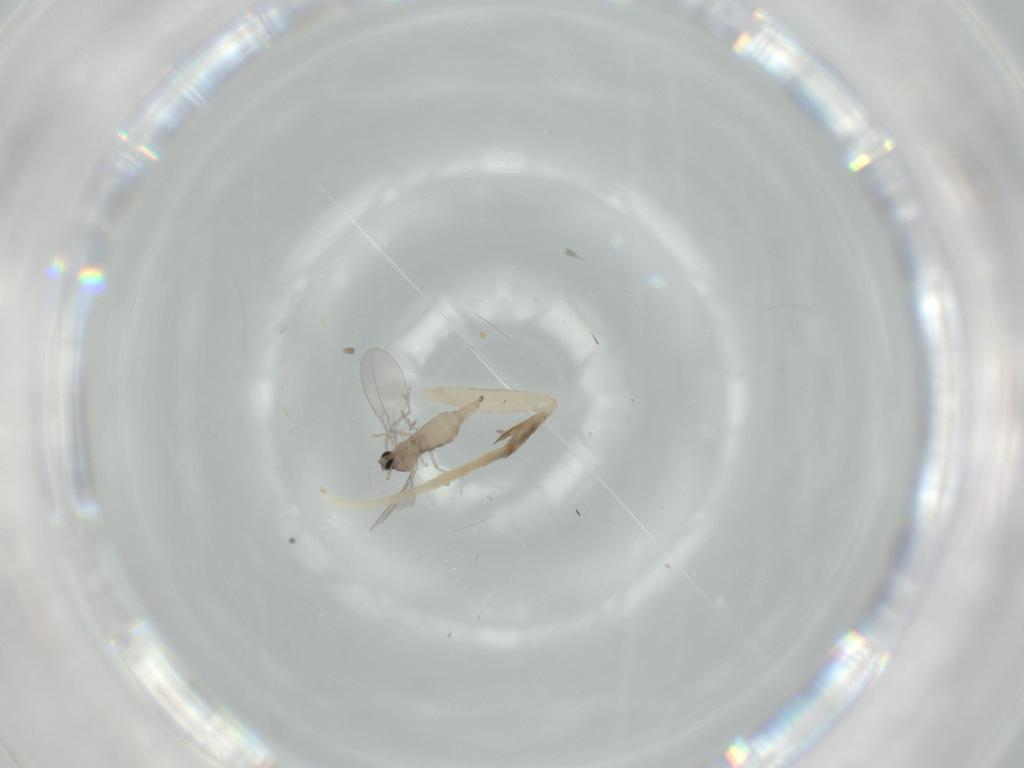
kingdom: Animalia
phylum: Arthropoda
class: Insecta
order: Diptera
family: Cecidomyiidae
